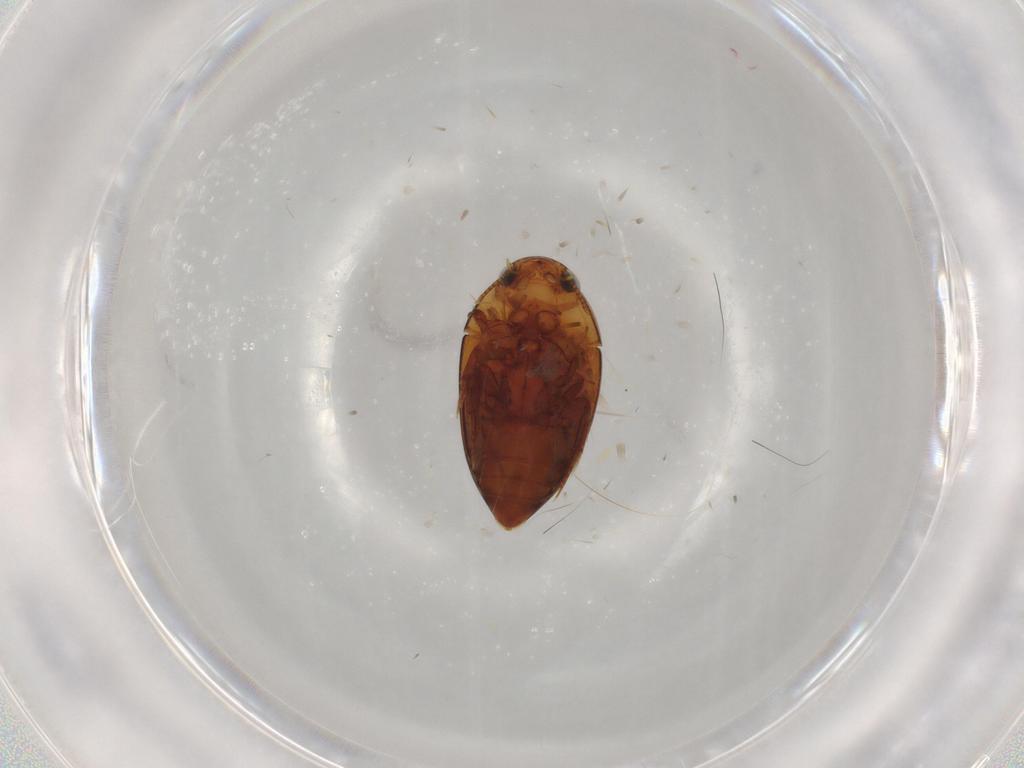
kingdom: Animalia
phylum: Arthropoda
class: Insecta
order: Coleoptera
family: Noteridae
